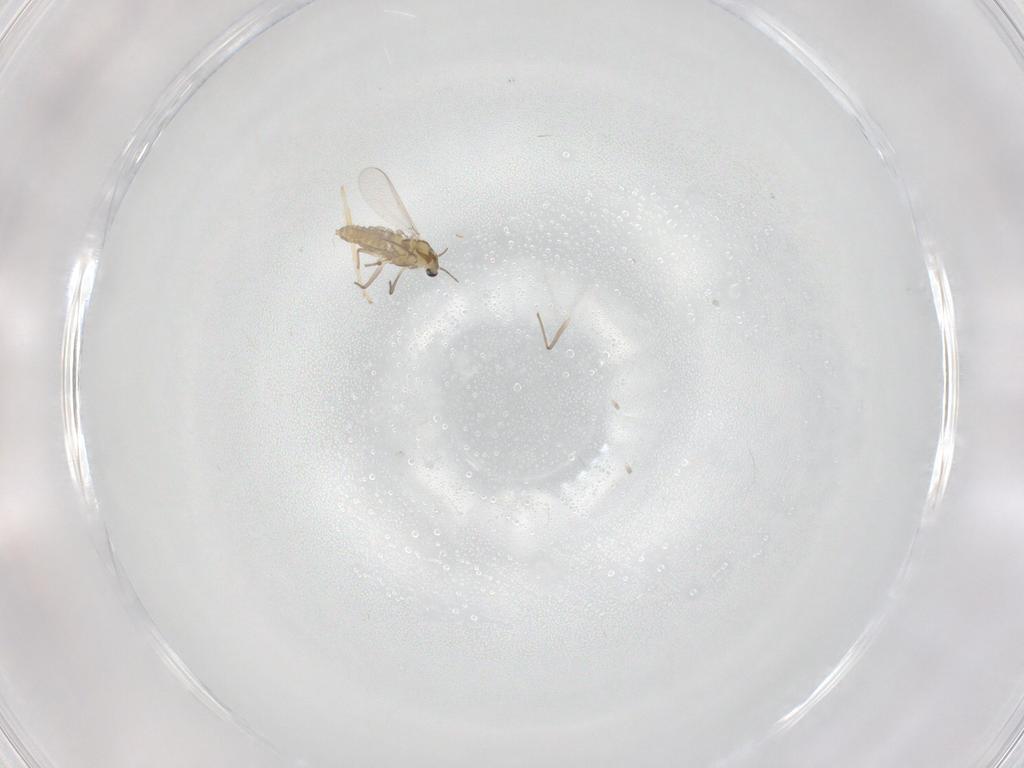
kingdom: Animalia
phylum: Arthropoda
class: Insecta
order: Diptera
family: Chironomidae
